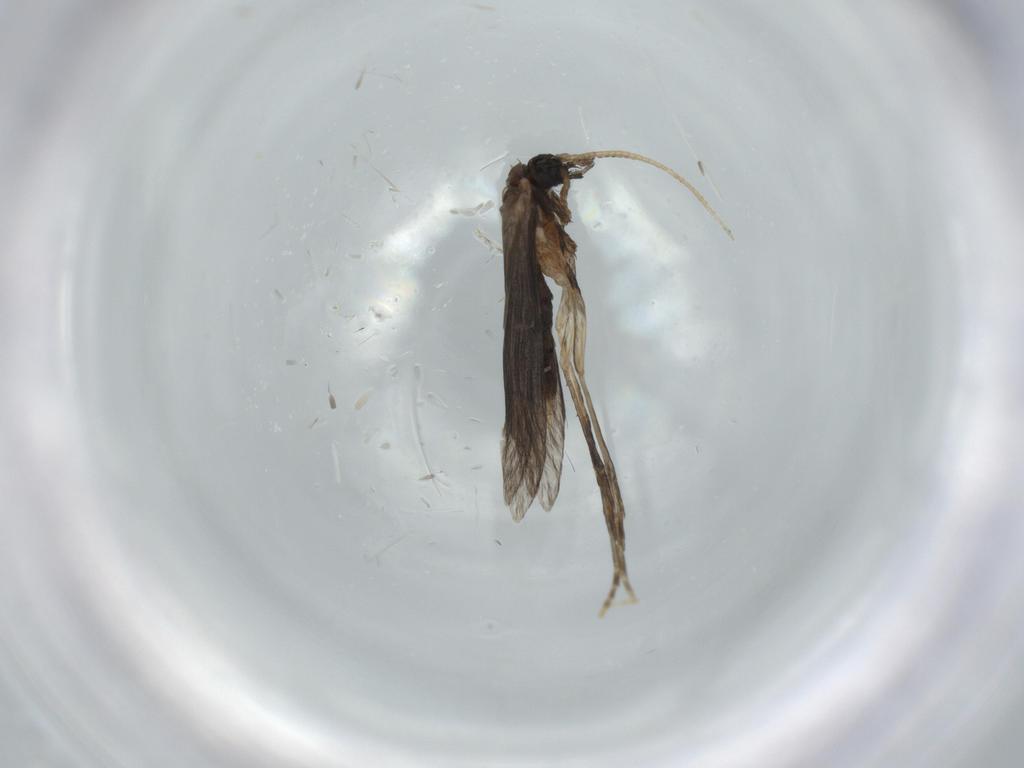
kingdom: Animalia
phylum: Arthropoda
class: Insecta
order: Trichoptera
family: Hydroptilidae
